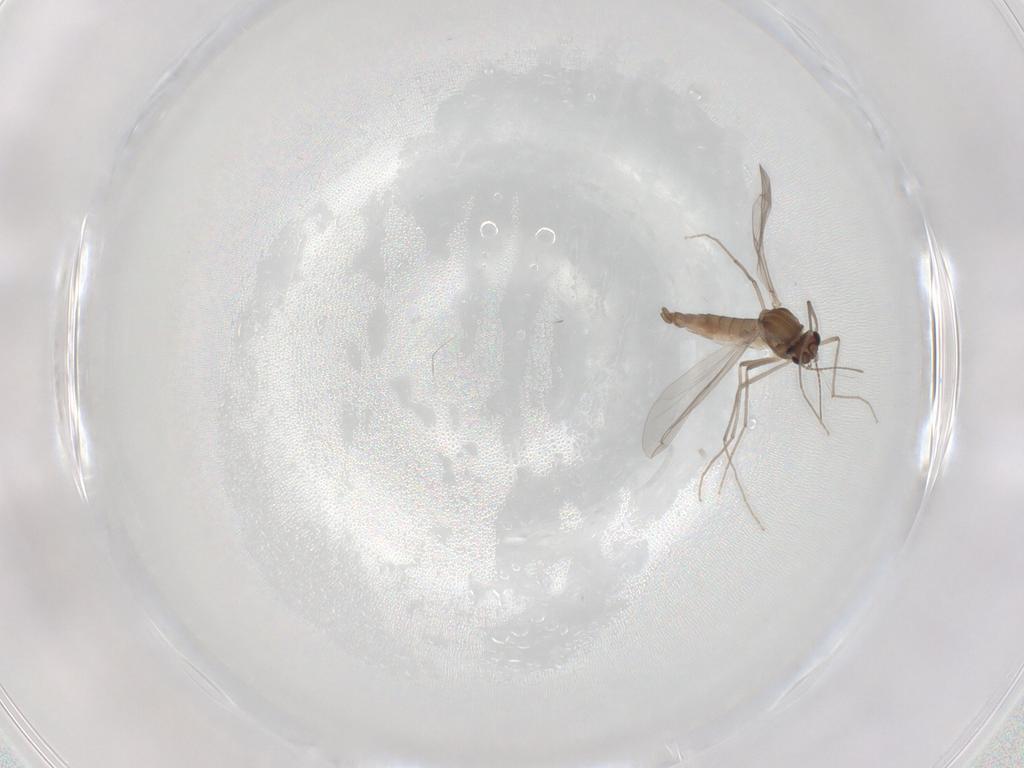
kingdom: Animalia
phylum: Arthropoda
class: Insecta
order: Diptera
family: Chironomidae
